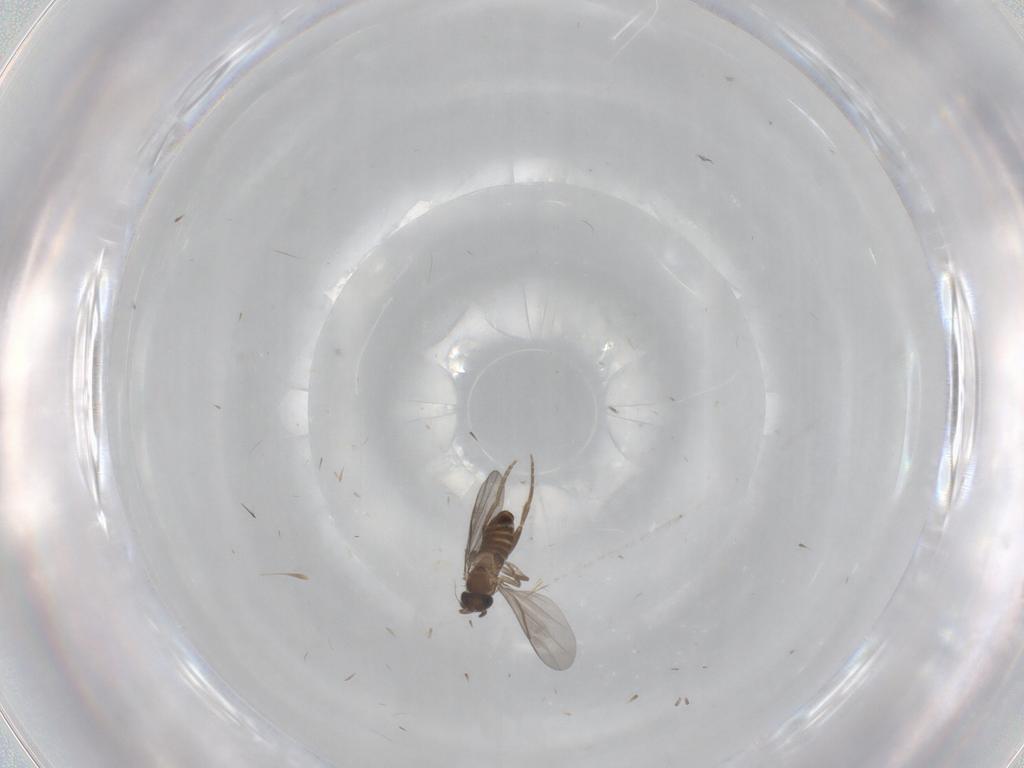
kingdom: Animalia
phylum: Arthropoda
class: Insecta
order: Diptera
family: Sciaridae
